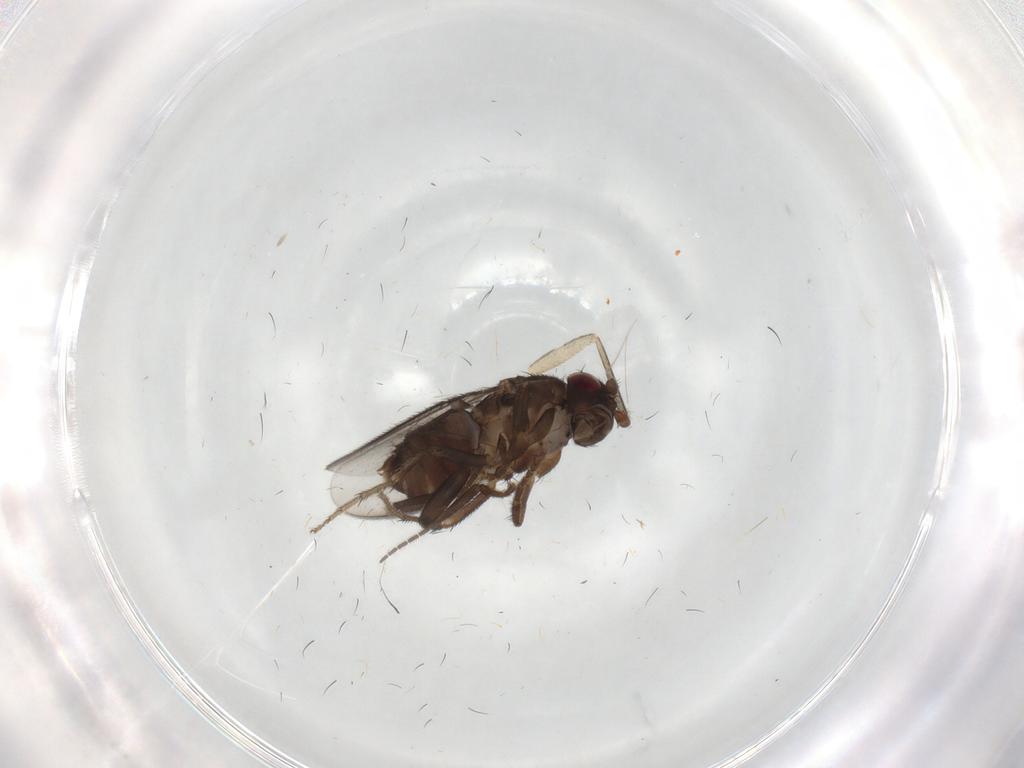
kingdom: Animalia
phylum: Arthropoda
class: Insecta
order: Diptera
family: Sphaeroceridae
